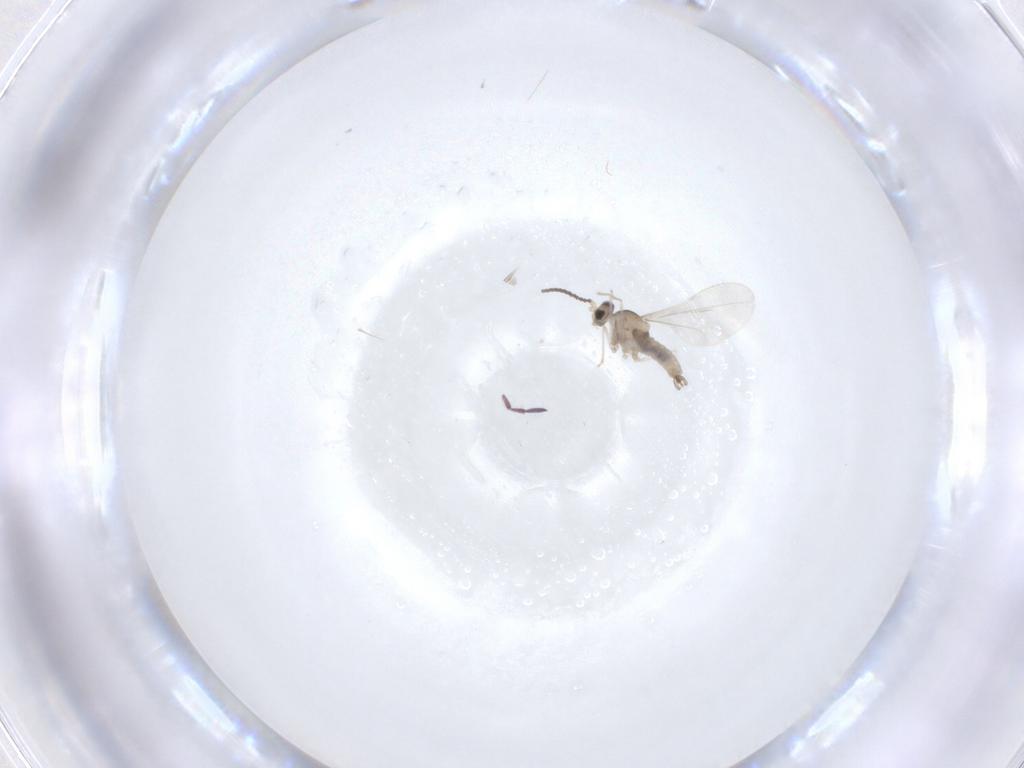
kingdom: Animalia
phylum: Arthropoda
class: Insecta
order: Diptera
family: Cecidomyiidae
